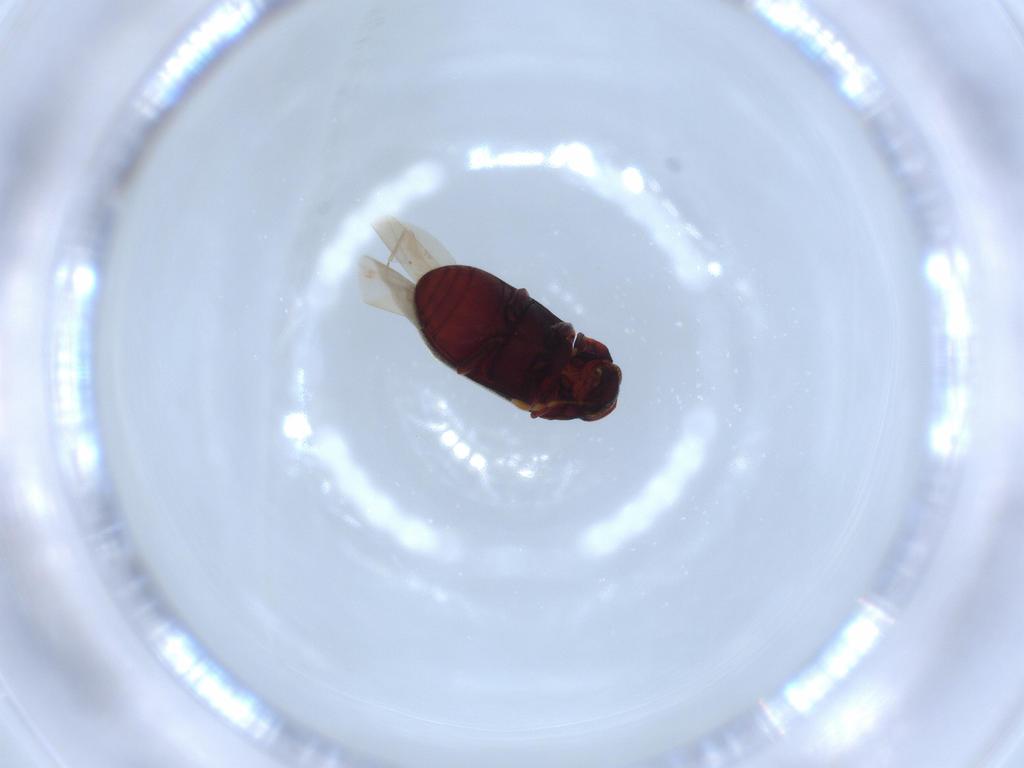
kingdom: Animalia
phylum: Arthropoda
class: Insecta
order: Coleoptera
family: Anobiidae
